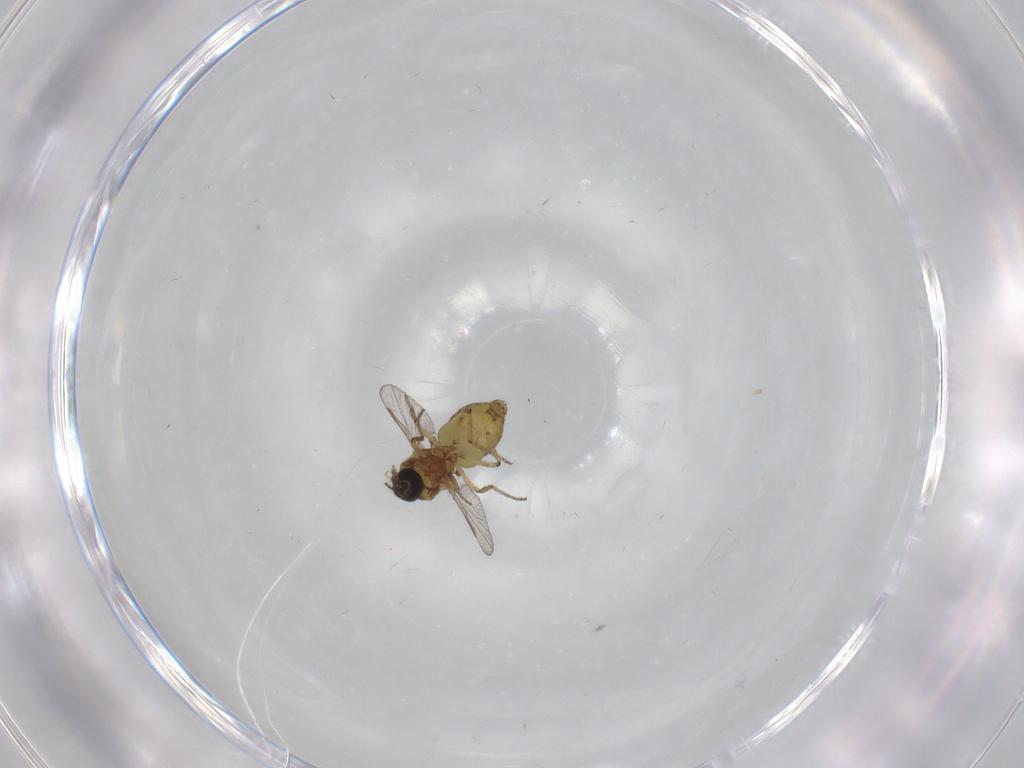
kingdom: Animalia
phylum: Arthropoda
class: Insecta
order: Diptera
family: Ceratopogonidae
